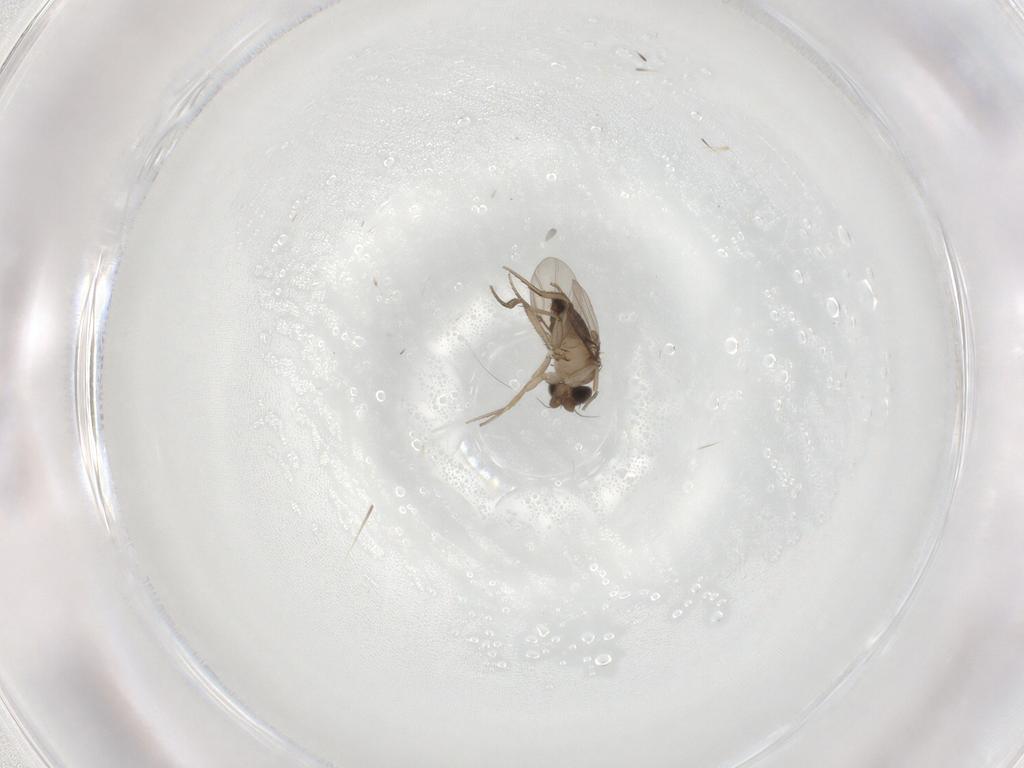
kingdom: Animalia
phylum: Arthropoda
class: Insecta
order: Diptera
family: Phoridae
